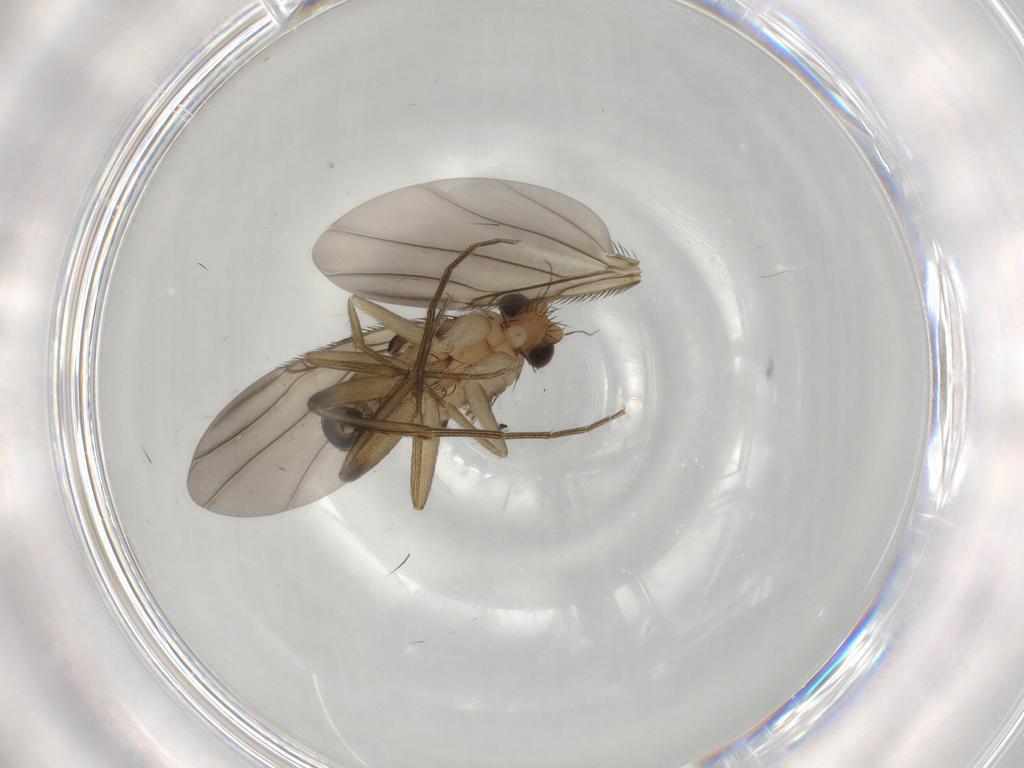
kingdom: Animalia
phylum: Arthropoda
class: Insecta
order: Diptera
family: Phoridae
